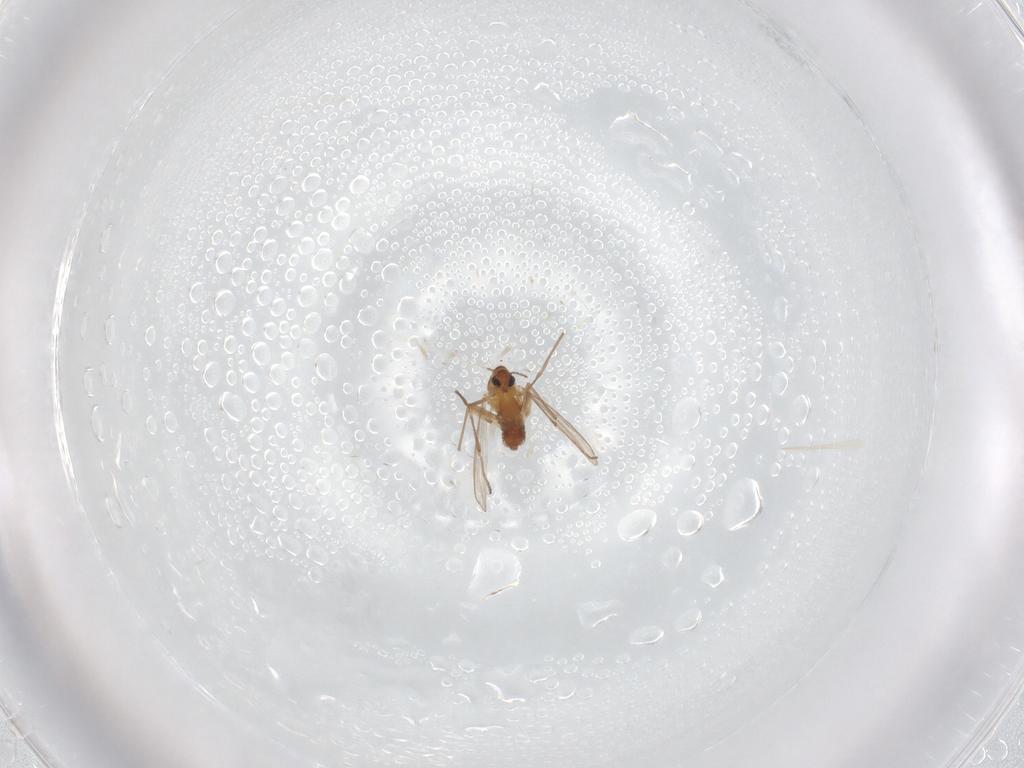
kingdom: Animalia
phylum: Arthropoda
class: Insecta
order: Diptera
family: Chironomidae
